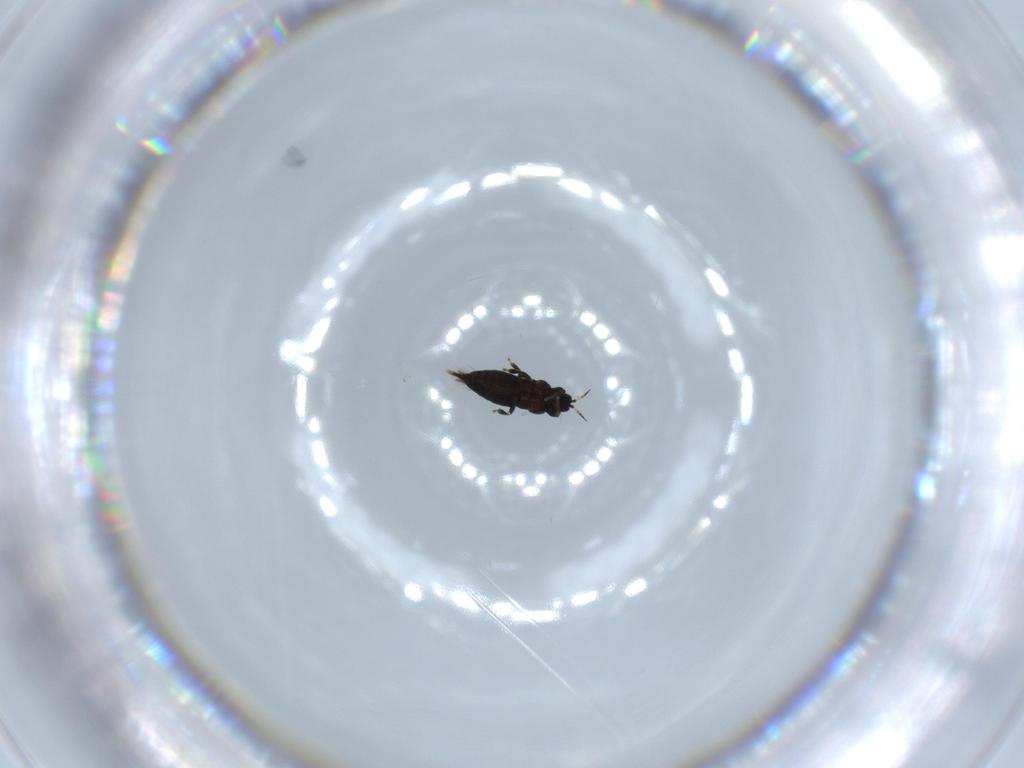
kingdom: Animalia
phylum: Arthropoda
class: Insecta
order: Thysanoptera
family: Heterothripidae
